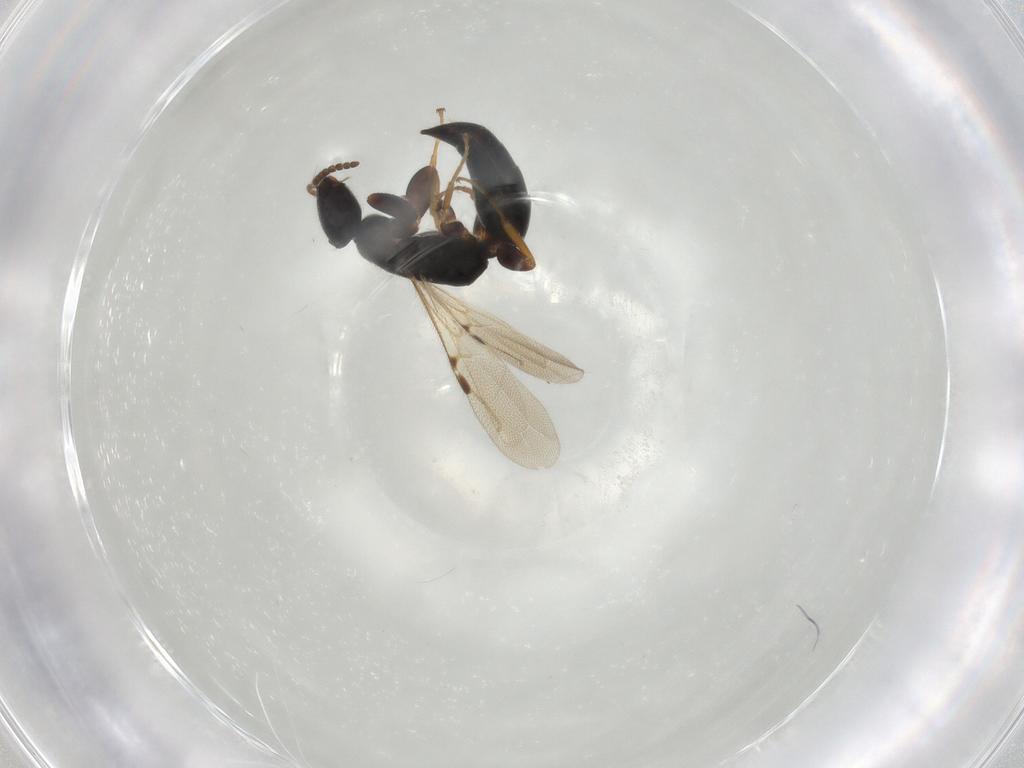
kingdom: Animalia
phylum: Arthropoda
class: Insecta
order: Hymenoptera
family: Bethylidae
